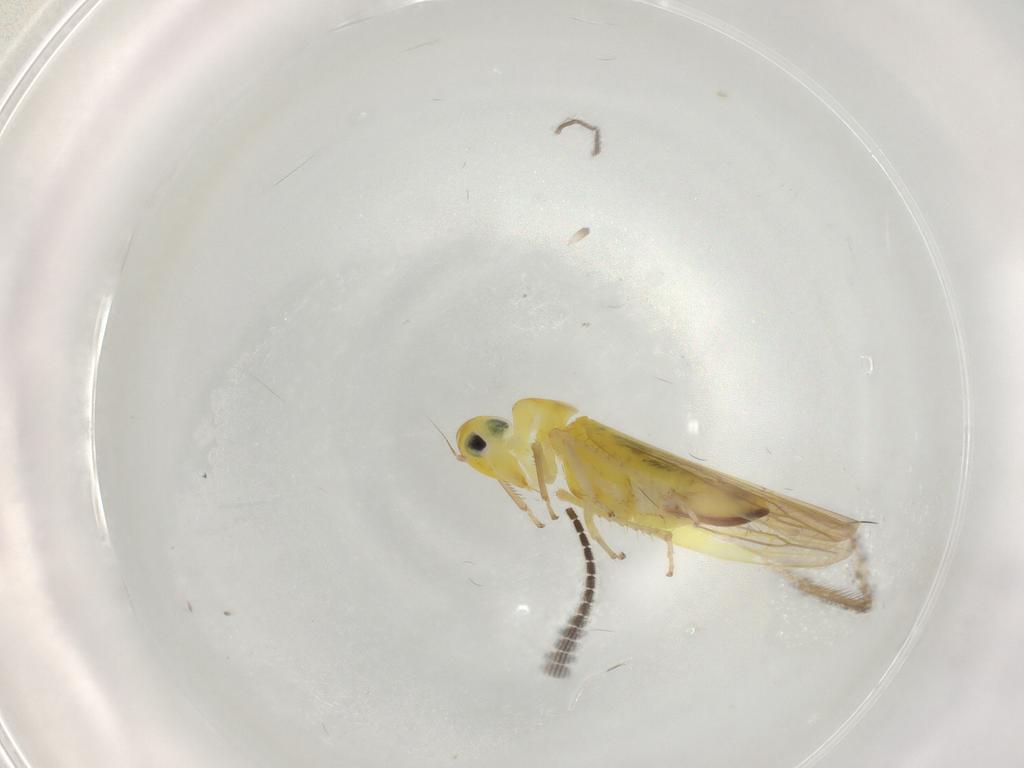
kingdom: Animalia
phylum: Arthropoda
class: Insecta
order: Hemiptera
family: Cicadellidae
